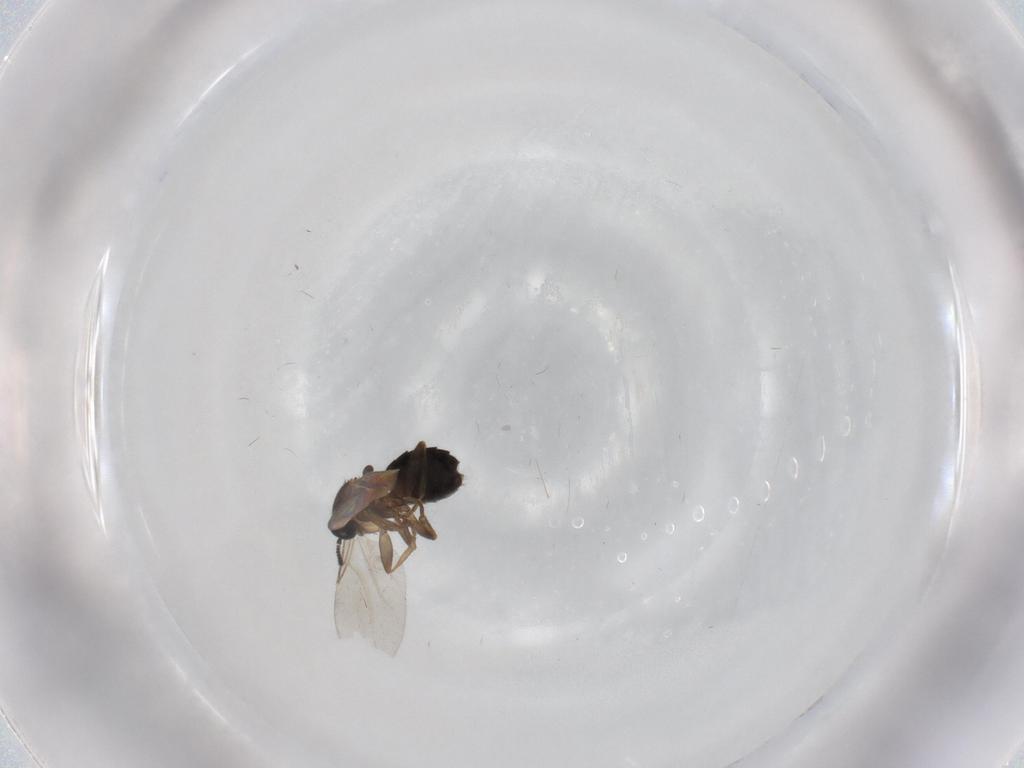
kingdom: Animalia
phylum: Arthropoda
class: Insecta
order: Diptera
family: Scatopsidae
